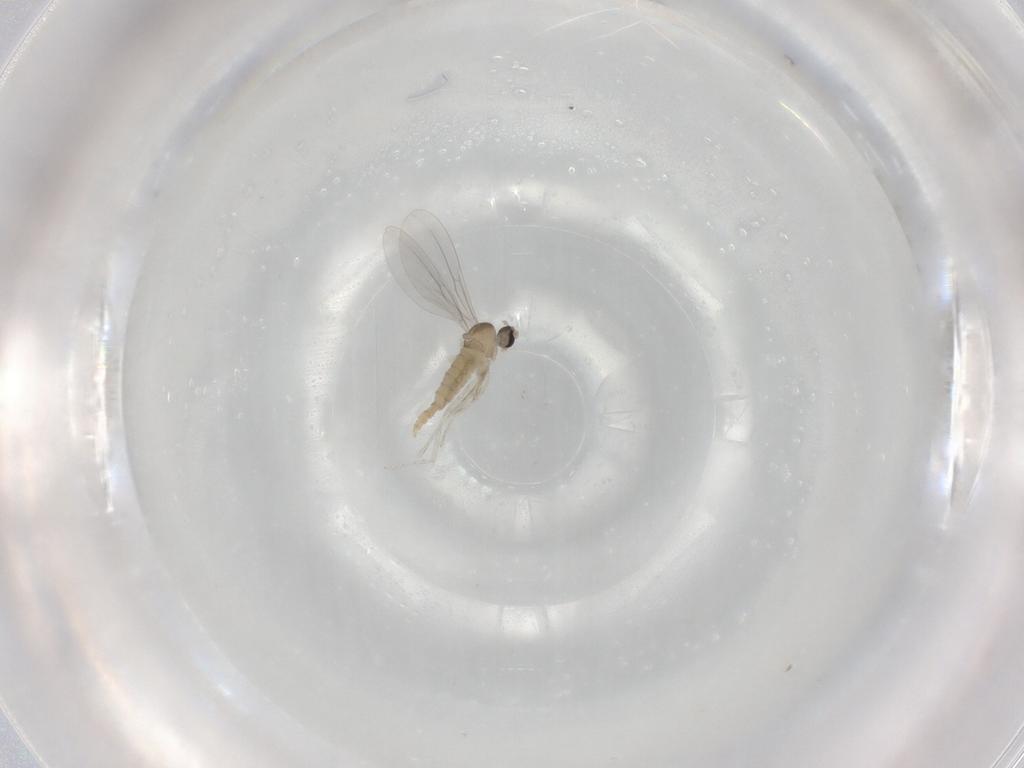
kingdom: Animalia
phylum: Arthropoda
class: Insecta
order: Diptera
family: Cecidomyiidae
